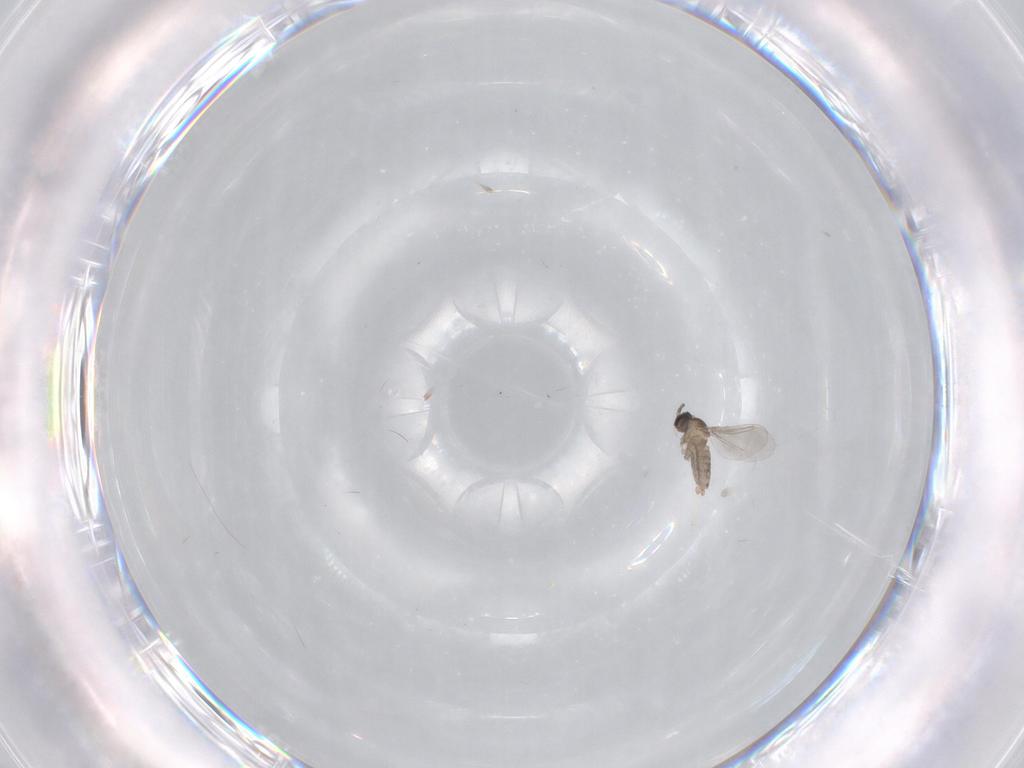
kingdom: Animalia
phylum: Arthropoda
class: Insecta
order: Diptera
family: Cecidomyiidae
